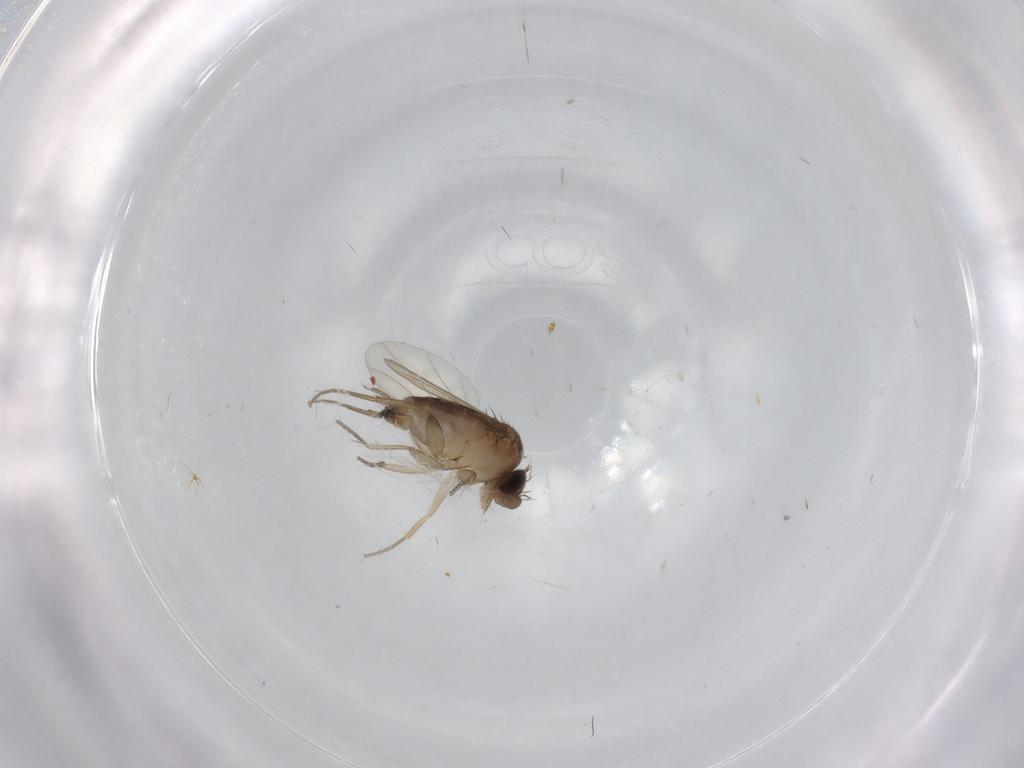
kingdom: Animalia
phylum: Arthropoda
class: Insecta
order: Diptera
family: Phoridae
